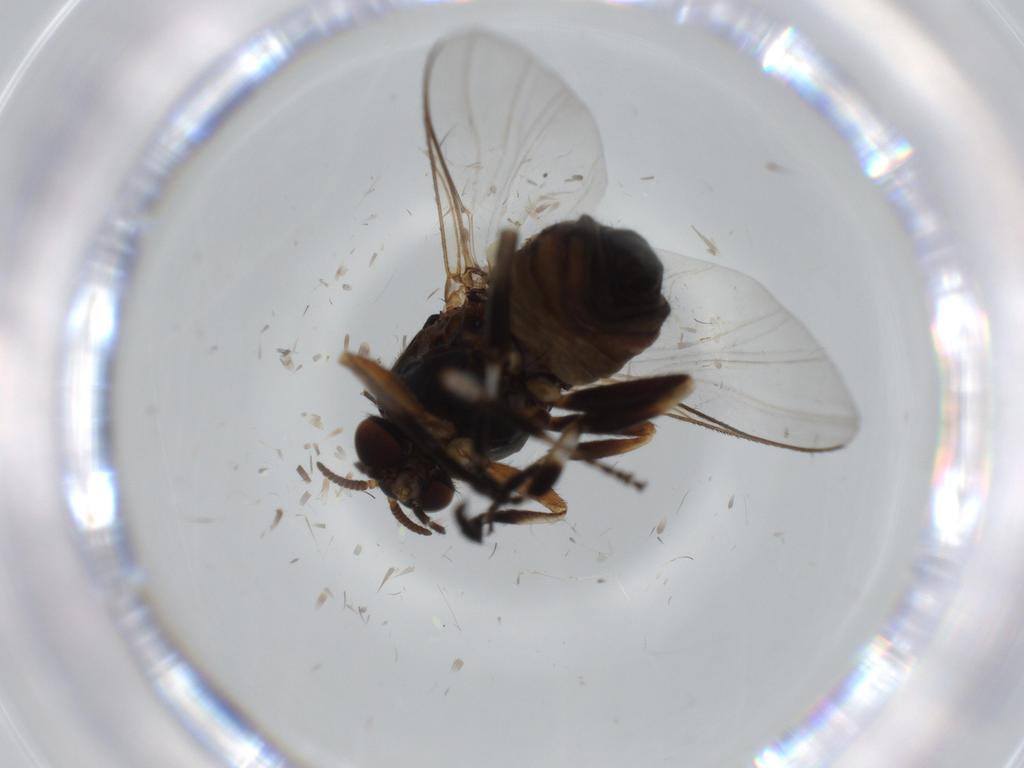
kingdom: Animalia
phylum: Arthropoda
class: Insecta
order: Diptera
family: Milichiidae
